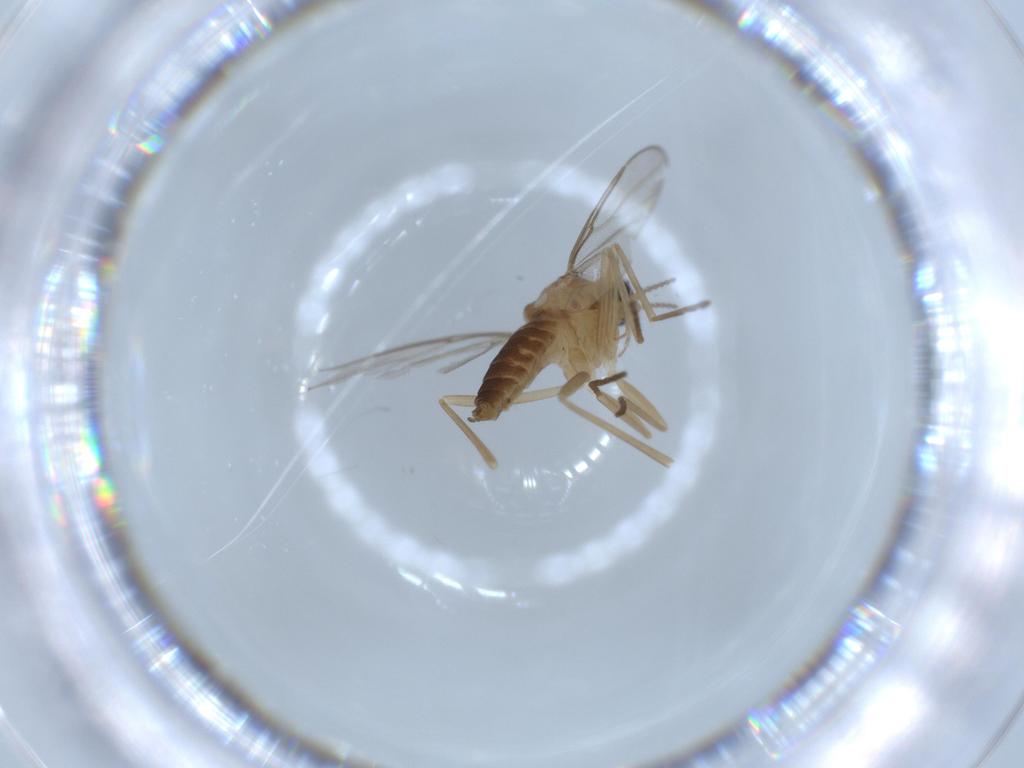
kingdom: Animalia
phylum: Arthropoda
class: Insecta
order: Diptera
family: Cecidomyiidae
